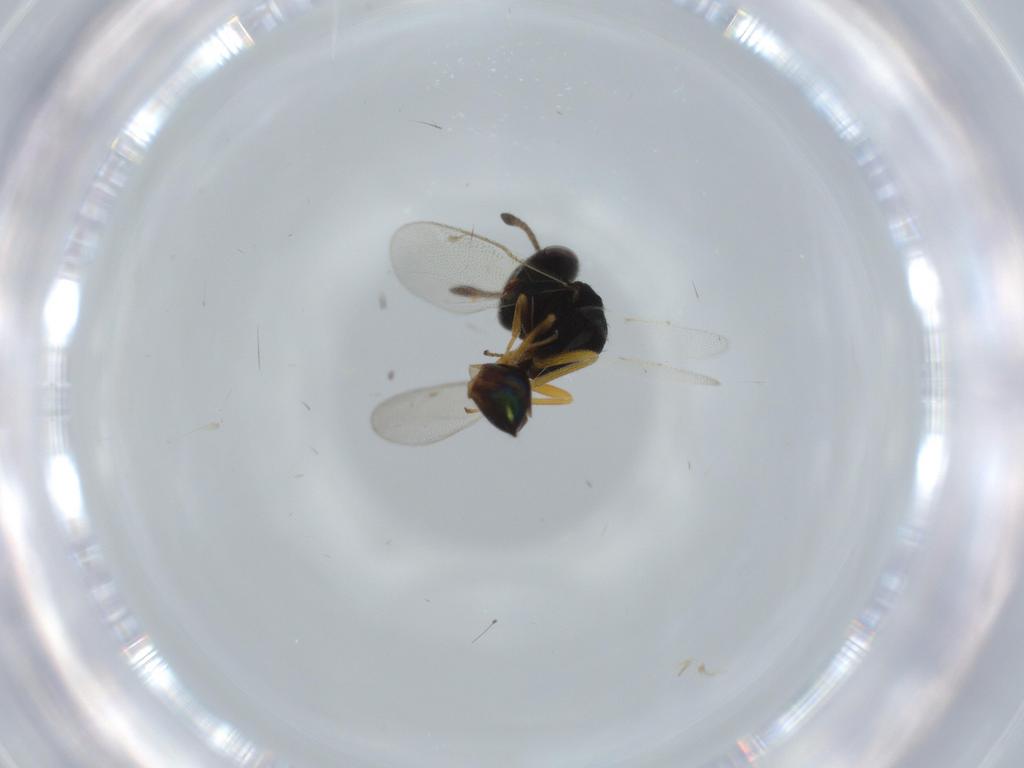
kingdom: Animalia
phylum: Arthropoda
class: Insecta
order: Hymenoptera
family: Pteromalidae
